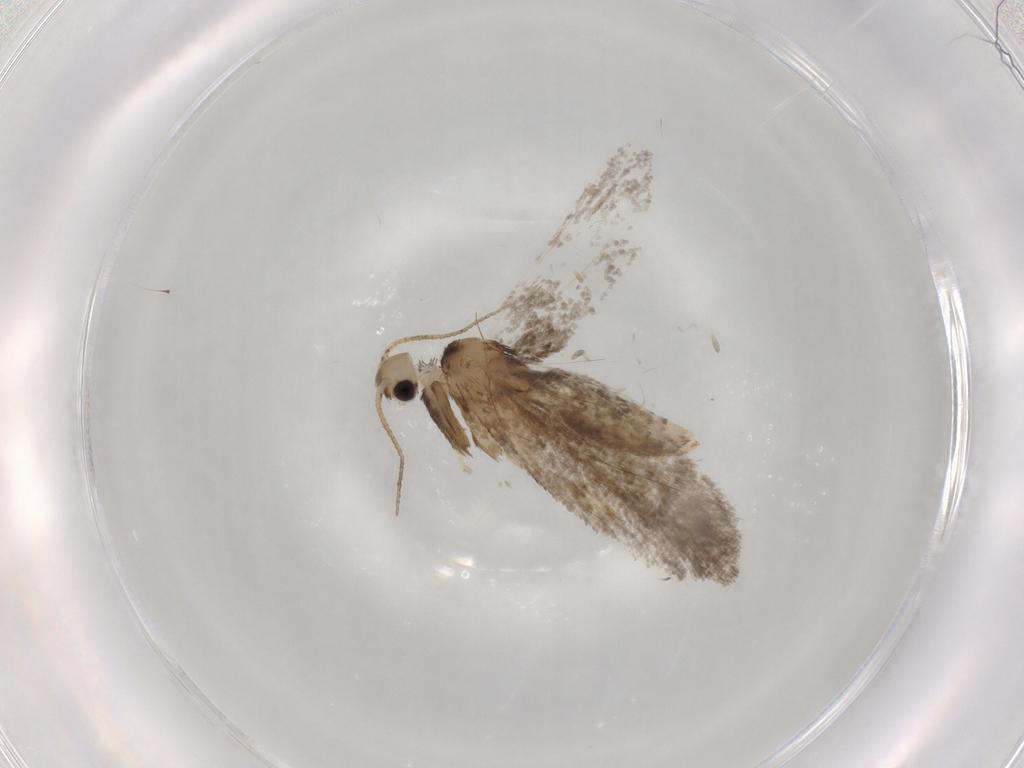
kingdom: Animalia
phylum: Arthropoda
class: Insecta
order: Lepidoptera
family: Psychidae
